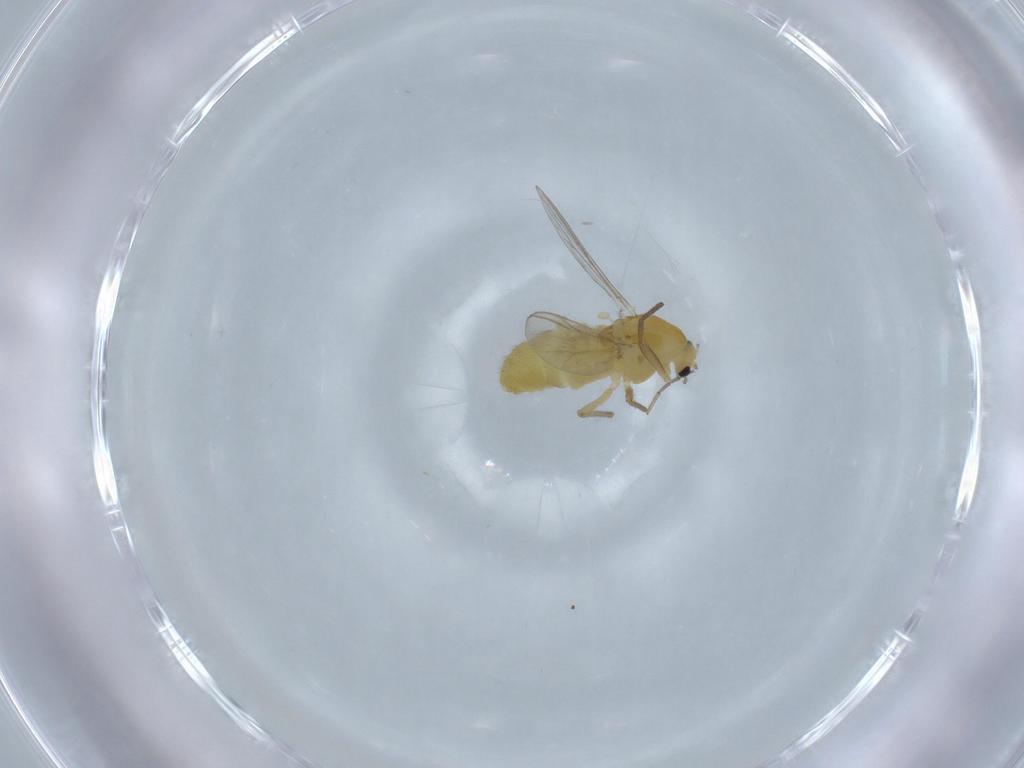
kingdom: Animalia
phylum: Arthropoda
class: Insecta
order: Diptera
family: Chironomidae
